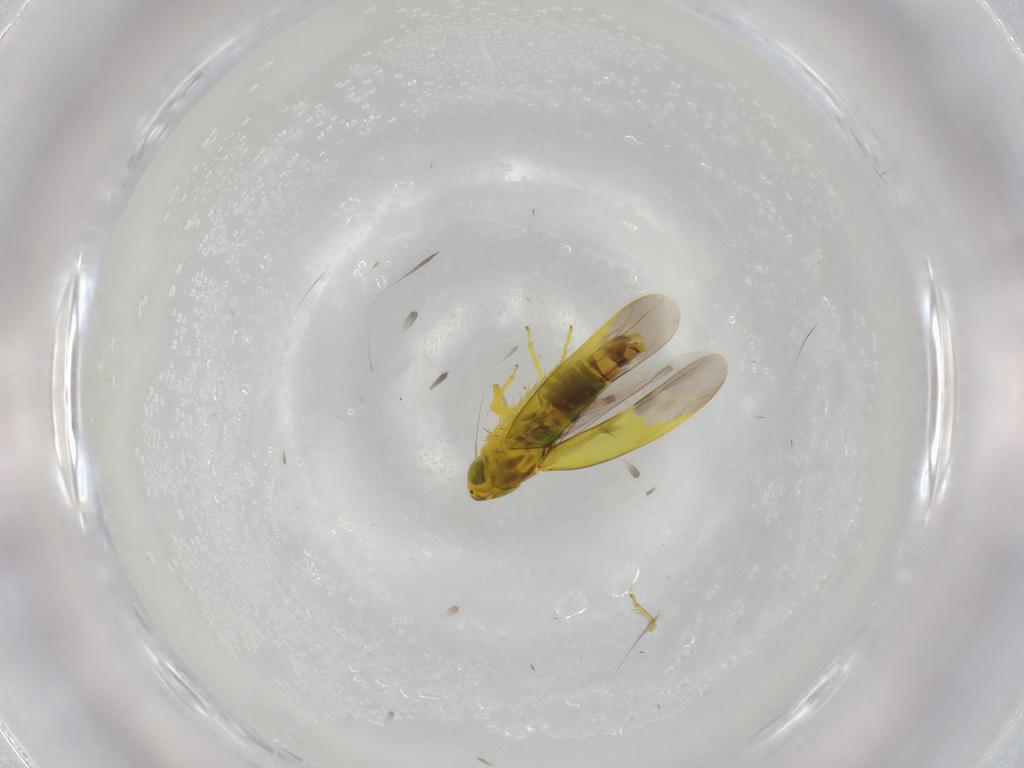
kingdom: Animalia
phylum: Arthropoda
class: Insecta
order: Hemiptera
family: Coccoidea_incertae_sedis
